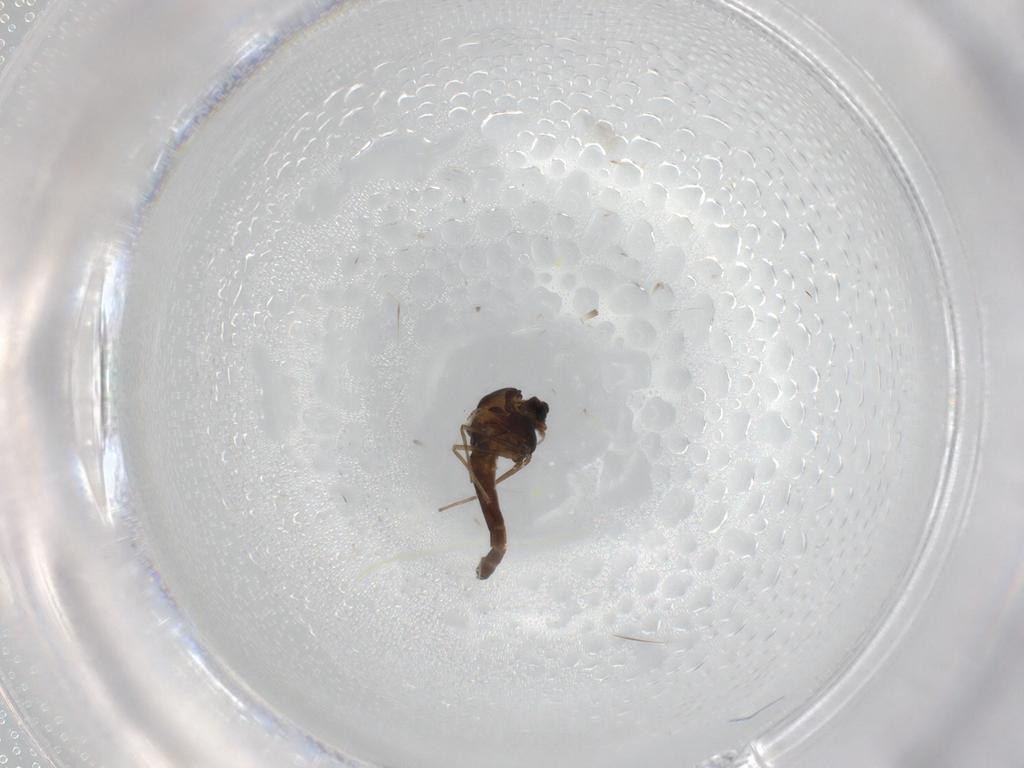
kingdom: Animalia
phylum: Arthropoda
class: Insecta
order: Diptera
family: Chironomidae
